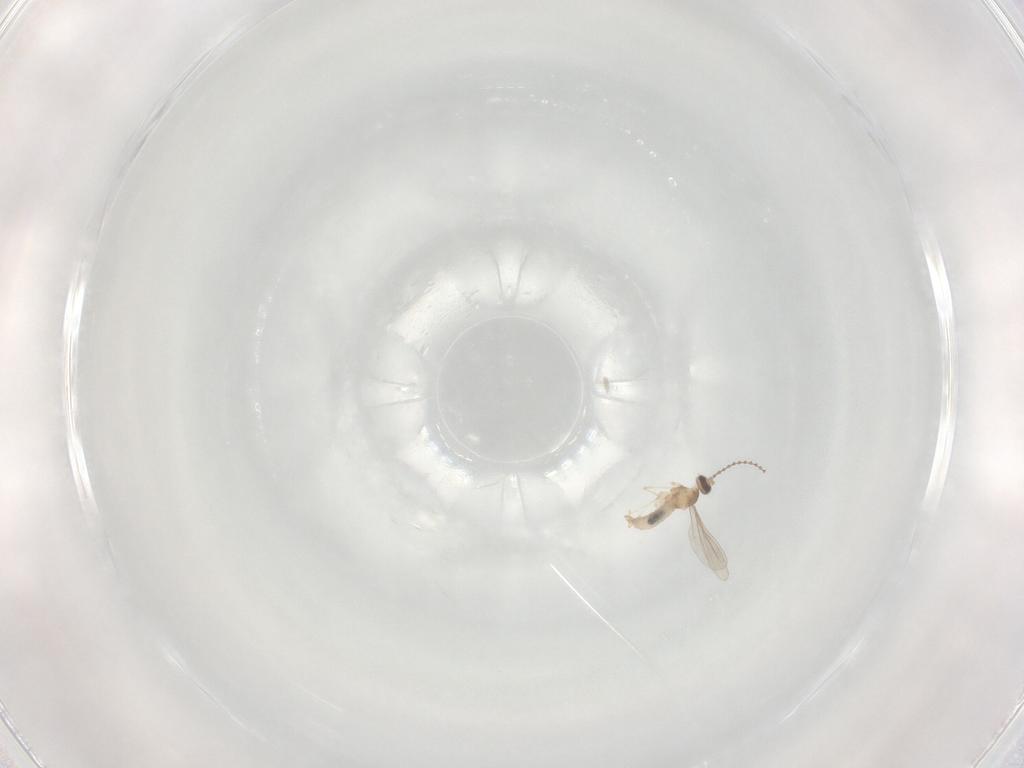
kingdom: Animalia
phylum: Arthropoda
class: Insecta
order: Diptera
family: Cecidomyiidae
